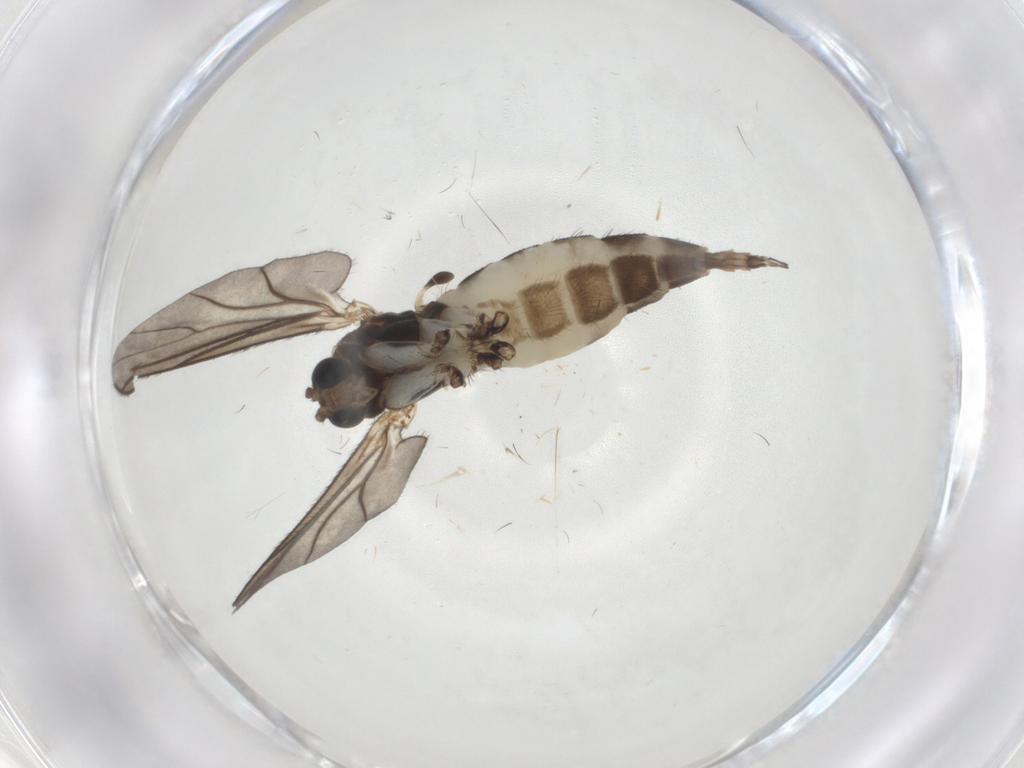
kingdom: Animalia
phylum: Arthropoda
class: Insecta
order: Diptera
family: Sciaridae
